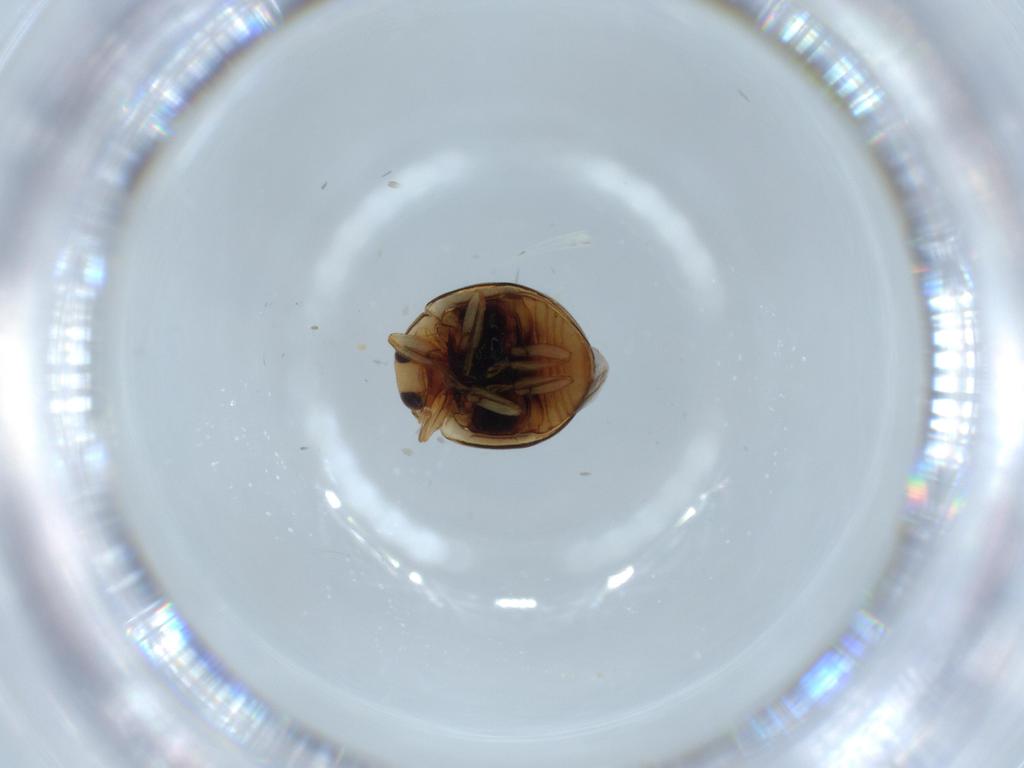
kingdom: Animalia
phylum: Arthropoda
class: Insecta
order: Coleoptera
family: Coccinellidae
